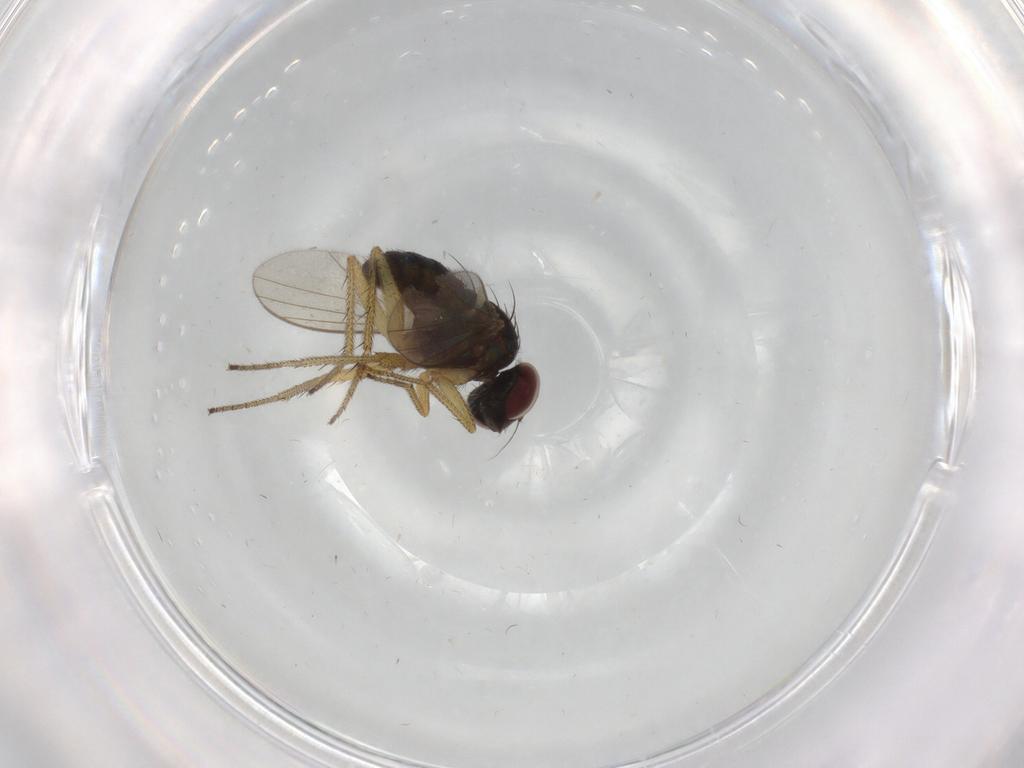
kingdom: Animalia
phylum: Arthropoda
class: Insecta
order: Diptera
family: Dolichopodidae
